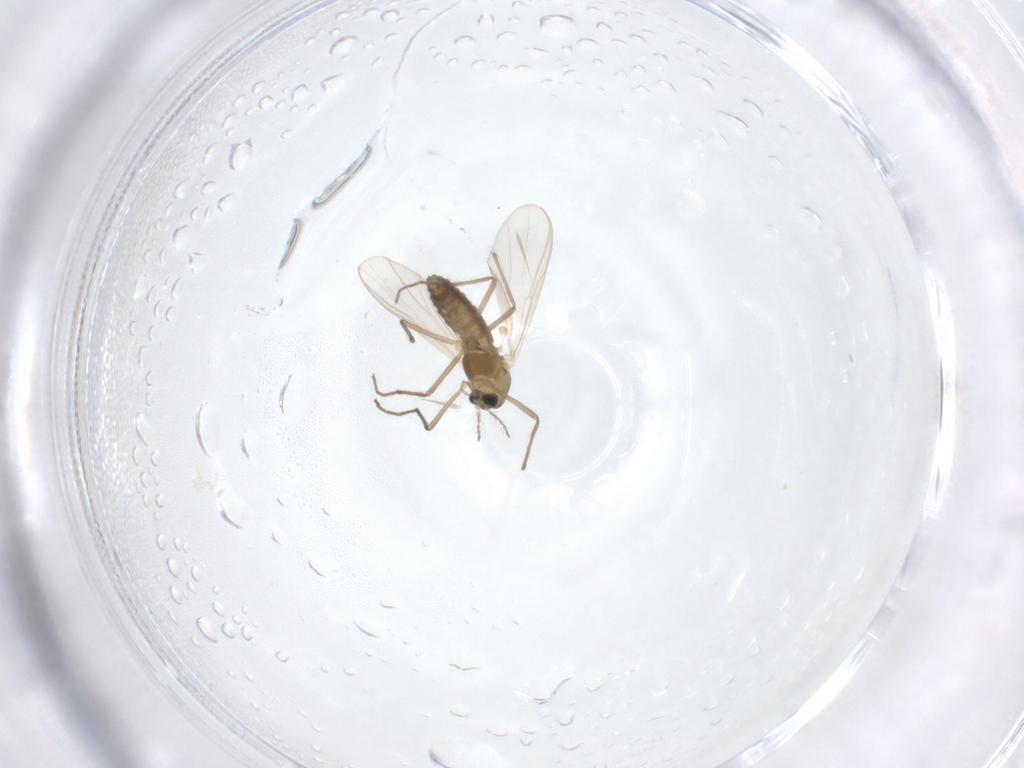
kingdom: Animalia
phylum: Arthropoda
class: Insecta
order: Diptera
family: Chironomidae
